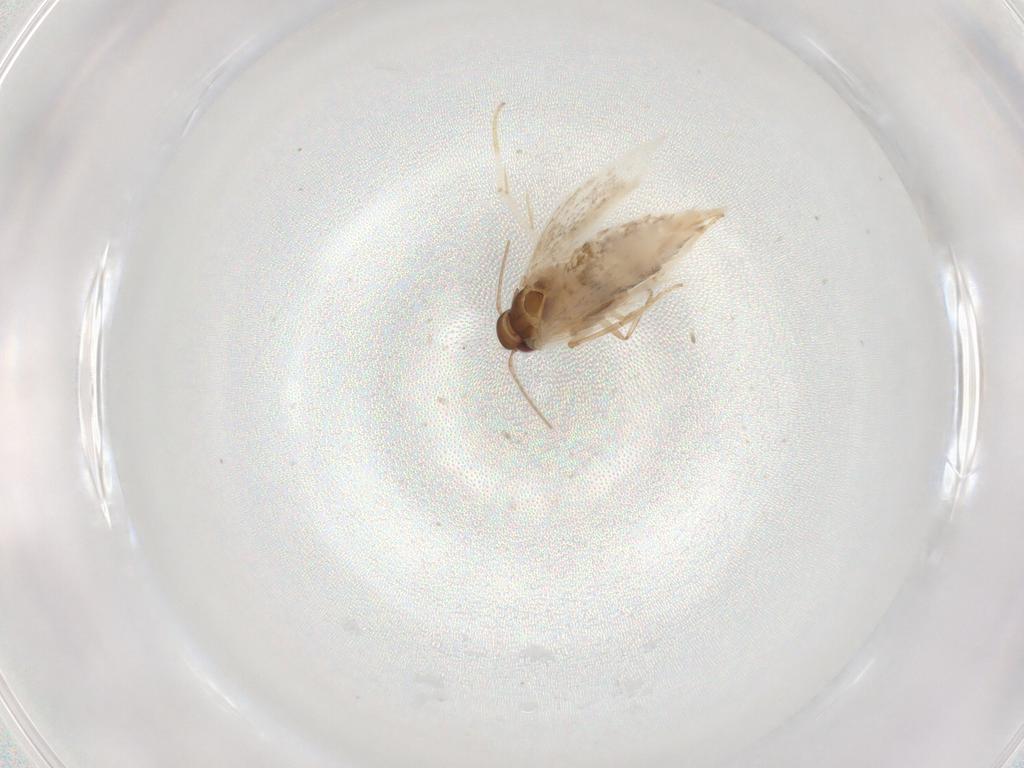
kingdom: Animalia
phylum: Arthropoda
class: Insecta
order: Lepidoptera
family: Gelechiidae
